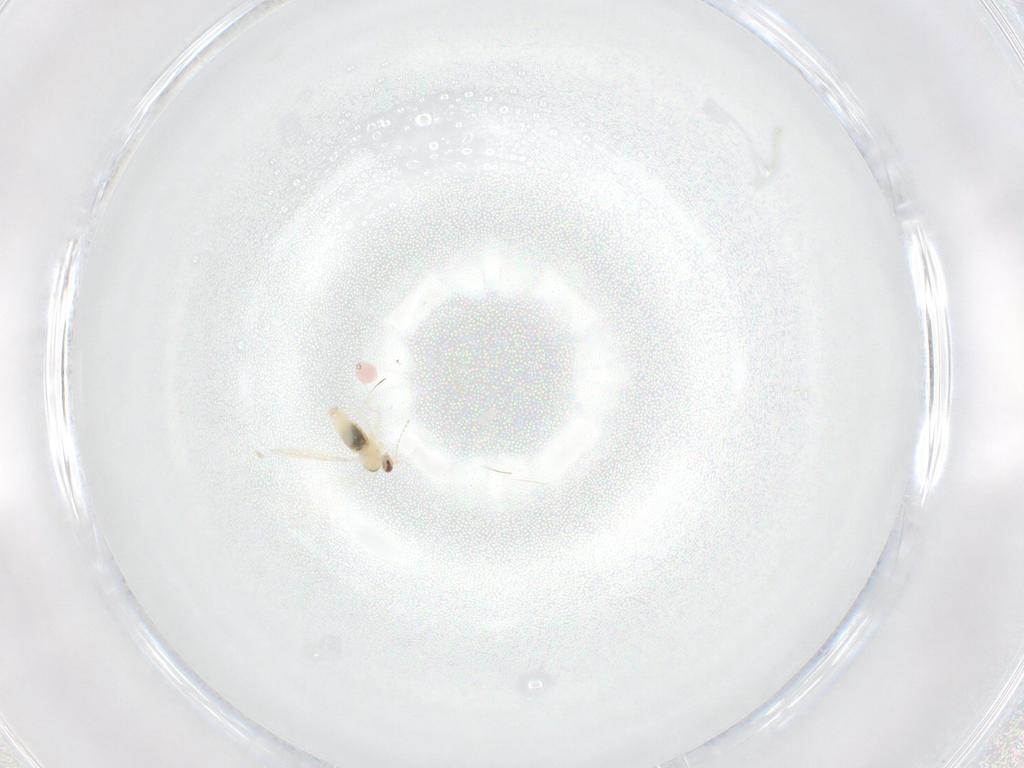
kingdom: Animalia
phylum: Arthropoda
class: Insecta
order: Diptera
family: Cecidomyiidae
